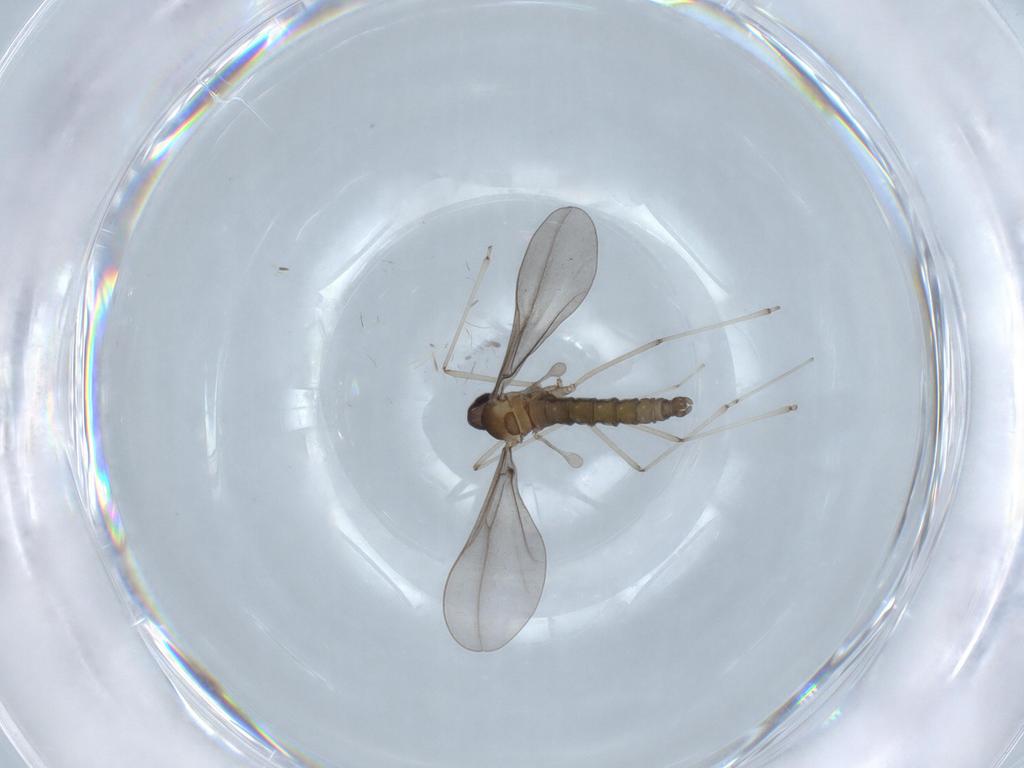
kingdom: Animalia
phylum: Arthropoda
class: Insecta
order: Diptera
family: Cecidomyiidae
